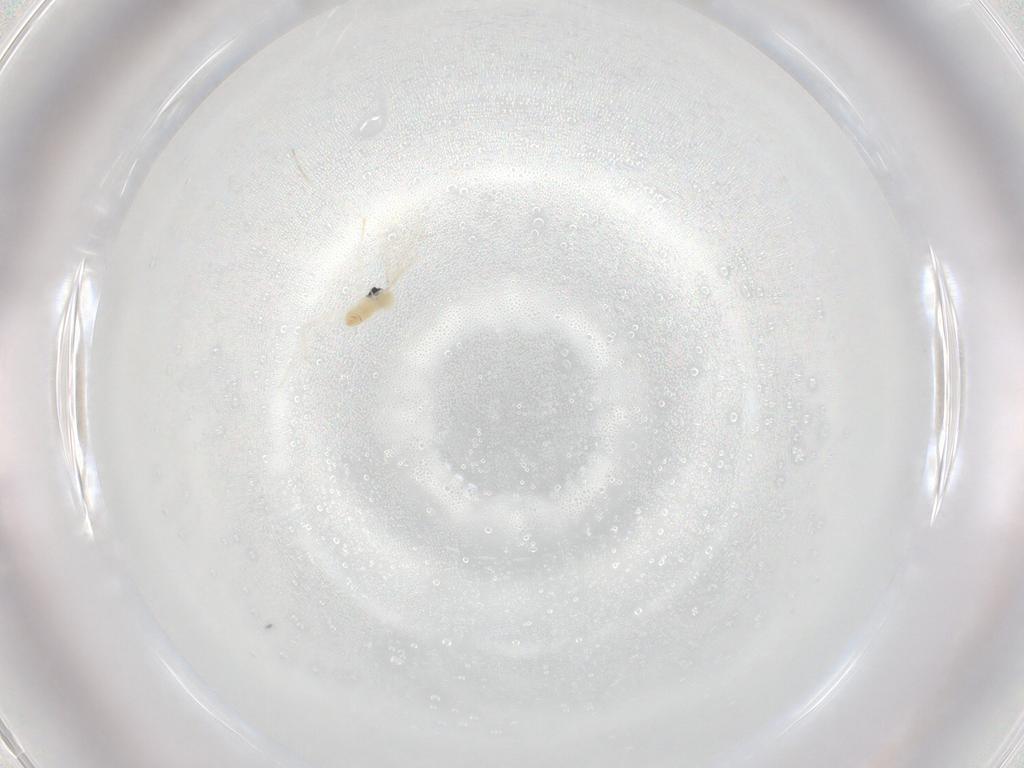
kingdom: Animalia
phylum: Arthropoda
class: Insecta
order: Diptera
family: Cecidomyiidae
